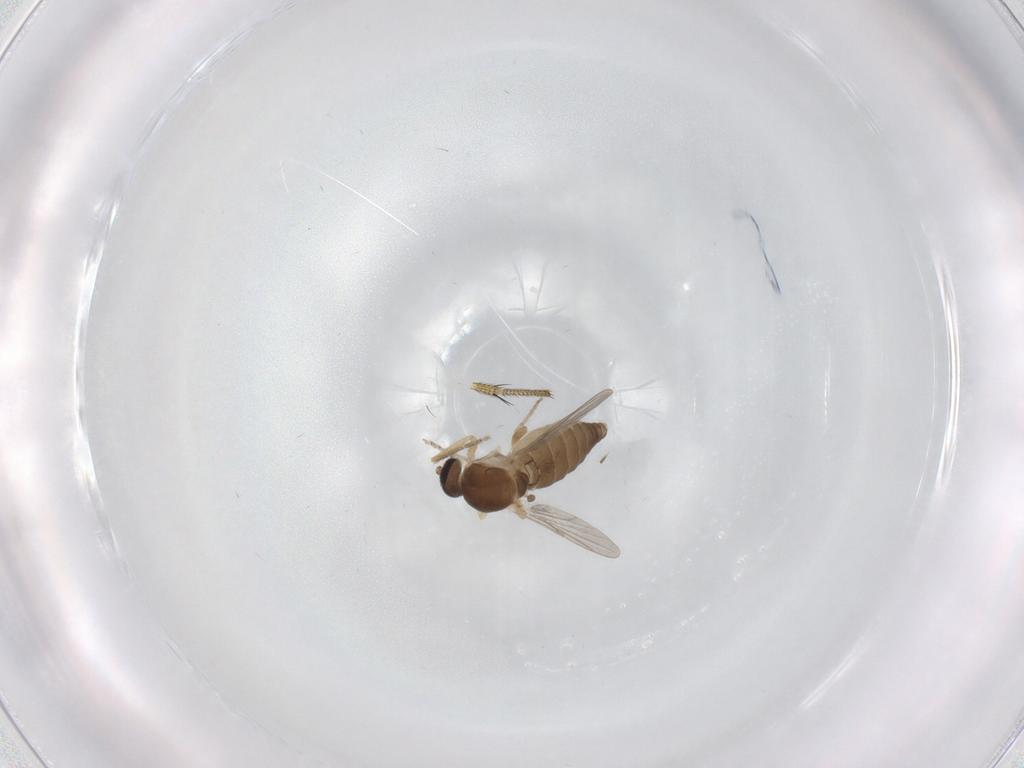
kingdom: Animalia
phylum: Arthropoda
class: Insecta
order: Diptera
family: Ceratopogonidae
